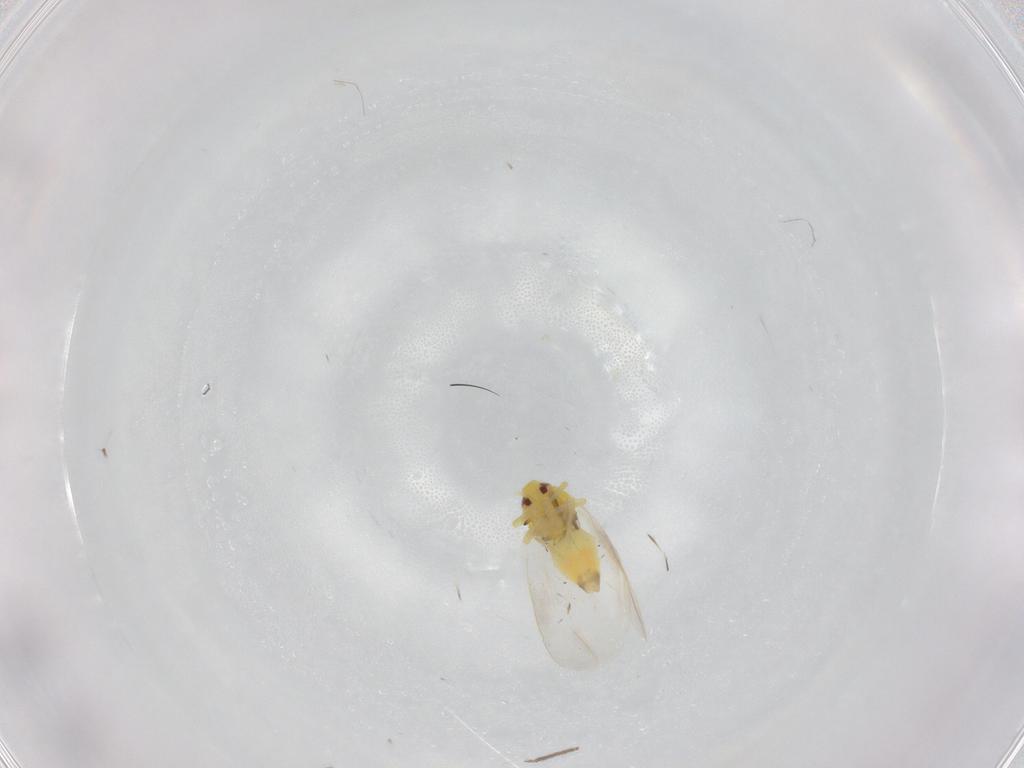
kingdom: Animalia
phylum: Arthropoda
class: Insecta
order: Hemiptera
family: Aleyrodidae
